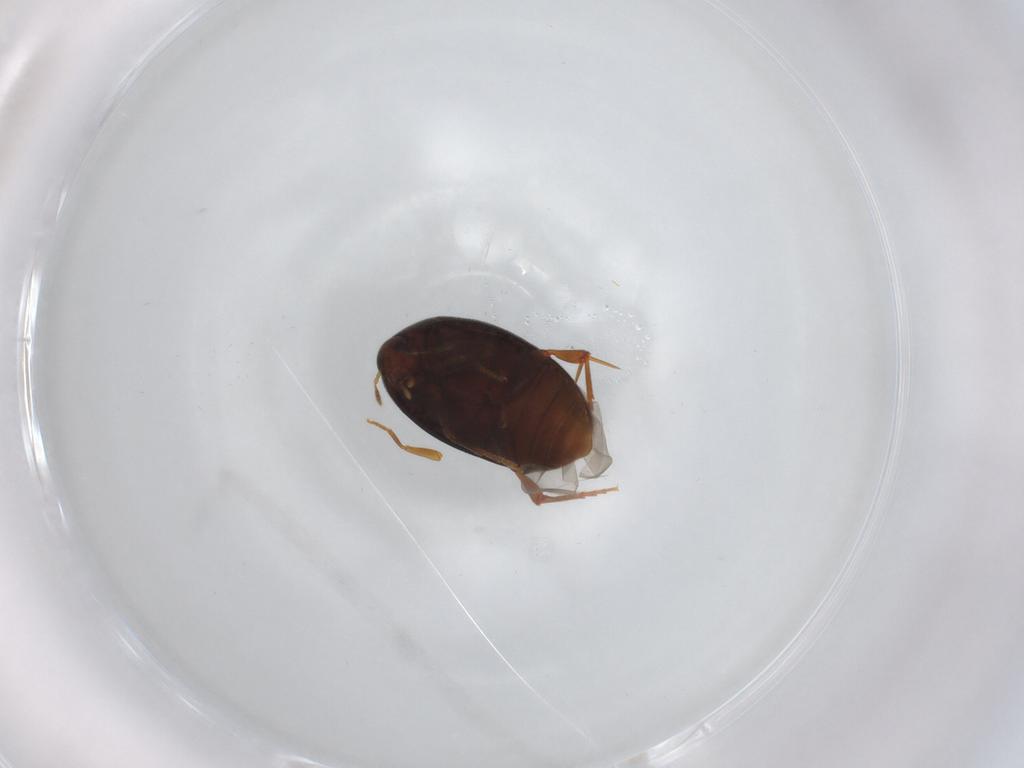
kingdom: Animalia
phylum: Arthropoda
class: Insecta
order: Coleoptera
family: Melandryidae
